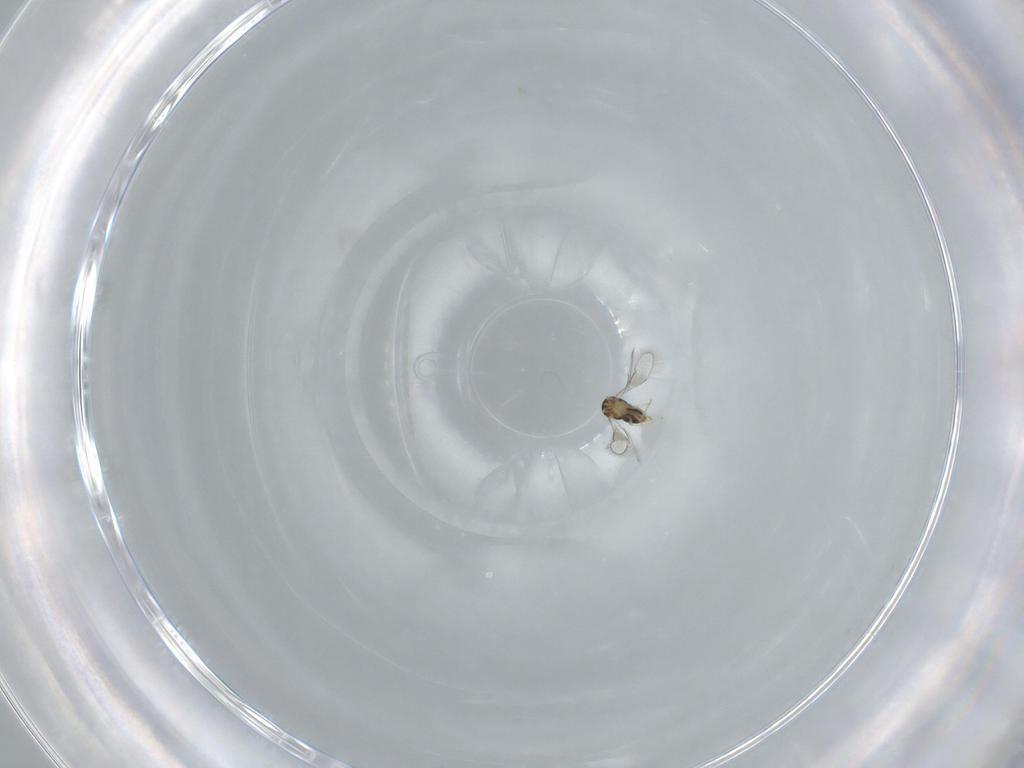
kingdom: Animalia
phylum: Arthropoda
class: Insecta
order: Hymenoptera
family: Aphelinidae
